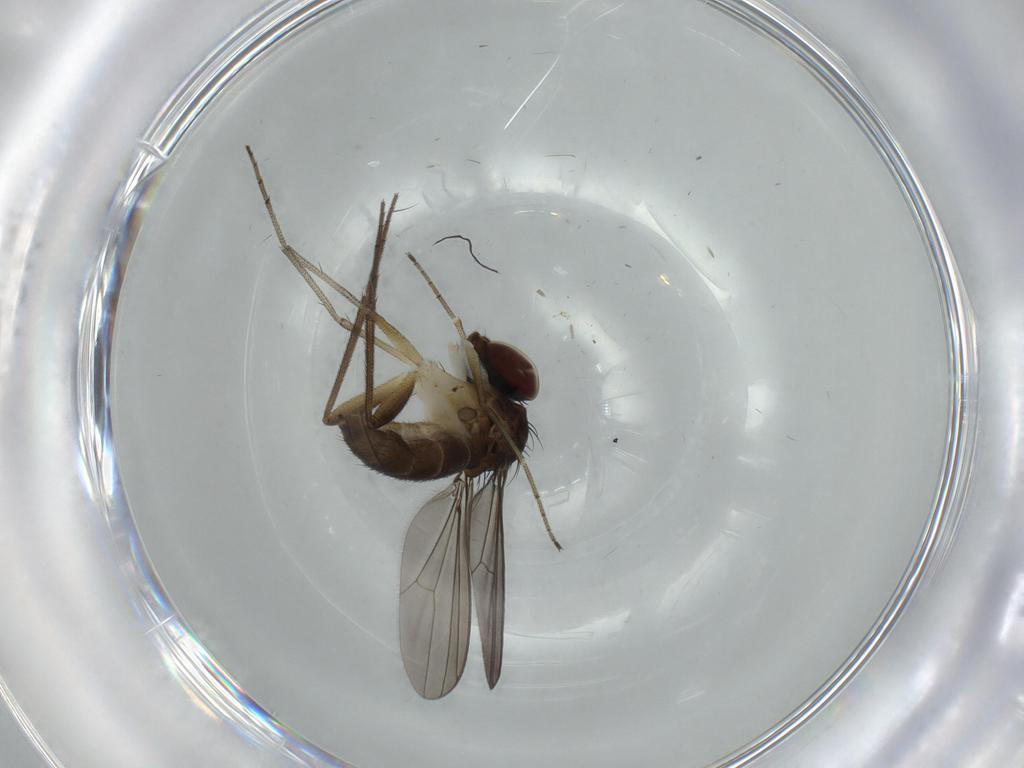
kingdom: Animalia
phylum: Arthropoda
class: Insecta
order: Diptera
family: Dolichopodidae
